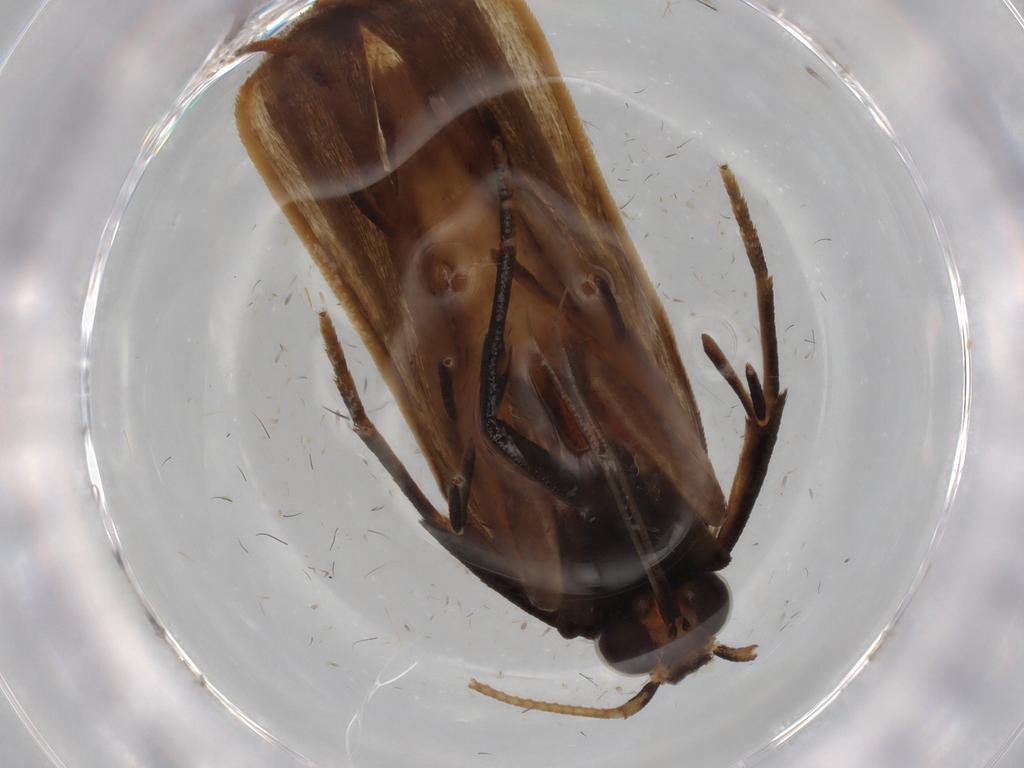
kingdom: Animalia
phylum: Arthropoda
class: Insecta
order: Lepidoptera
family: Gelechiidae
